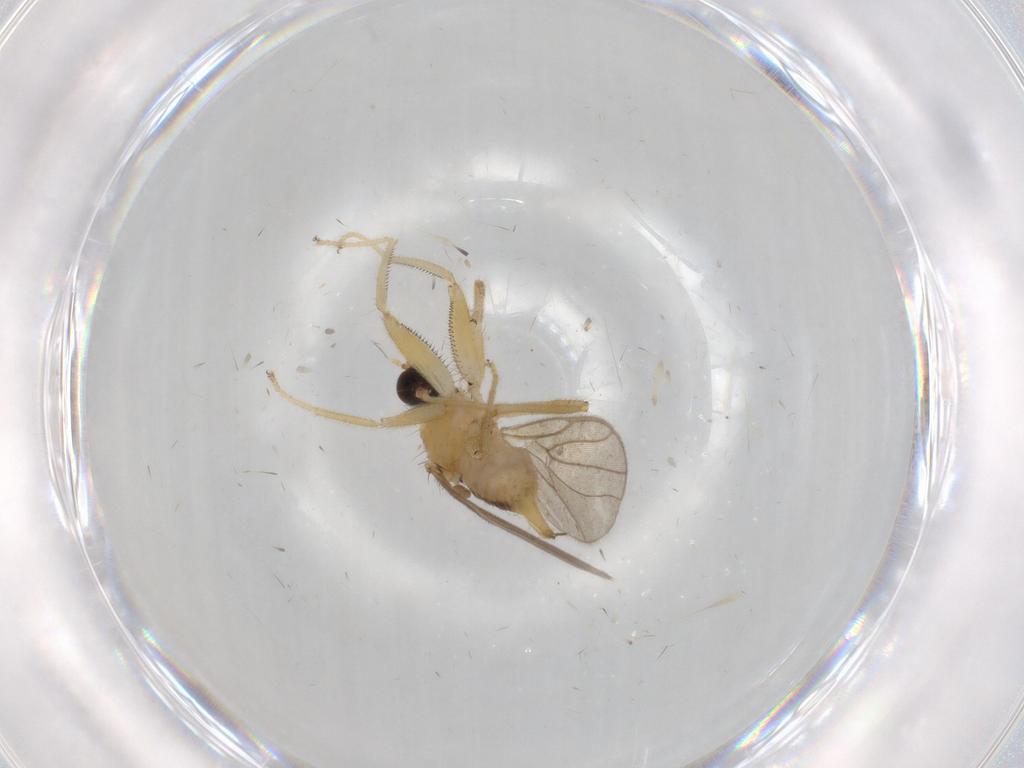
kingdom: Animalia
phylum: Arthropoda
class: Insecta
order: Diptera
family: Hybotidae
